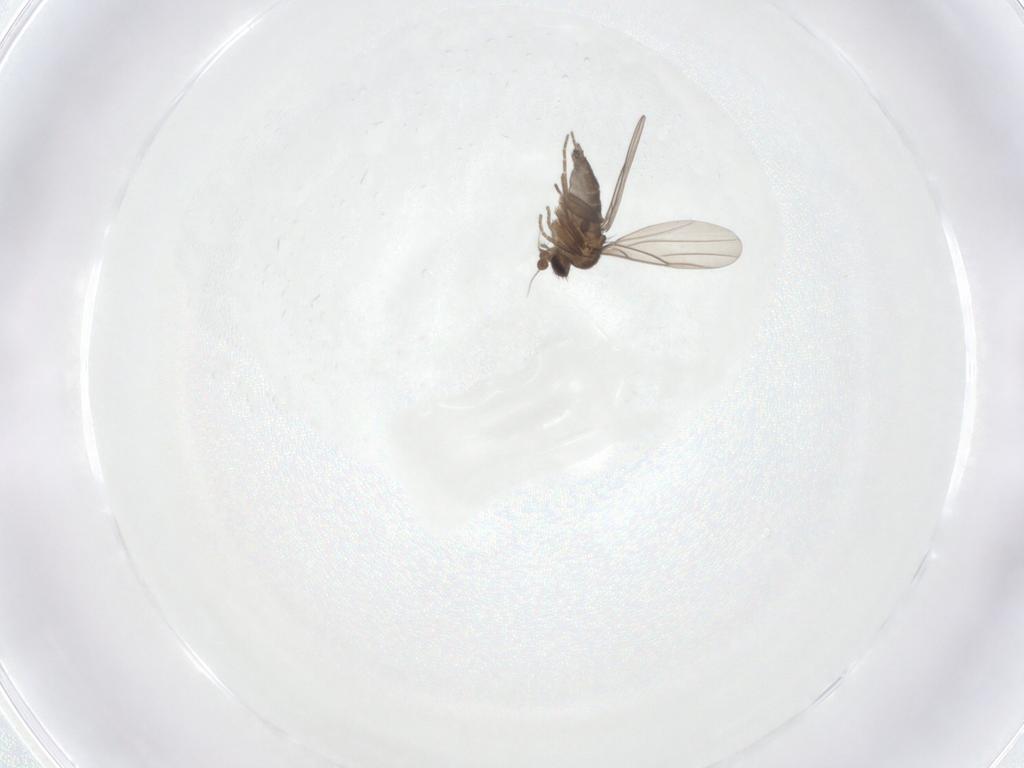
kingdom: Animalia
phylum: Arthropoda
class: Insecta
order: Diptera
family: Phoridae
